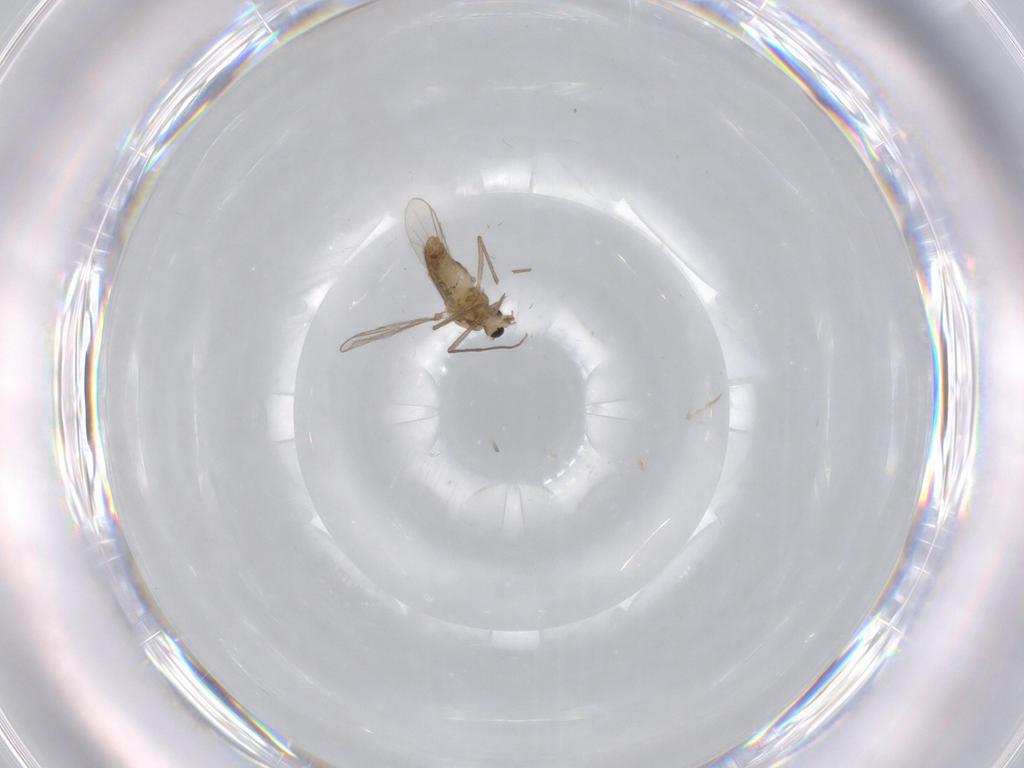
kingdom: Animalia
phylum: Arthropoda
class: Insecta
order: Diptera
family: Chironomidae
